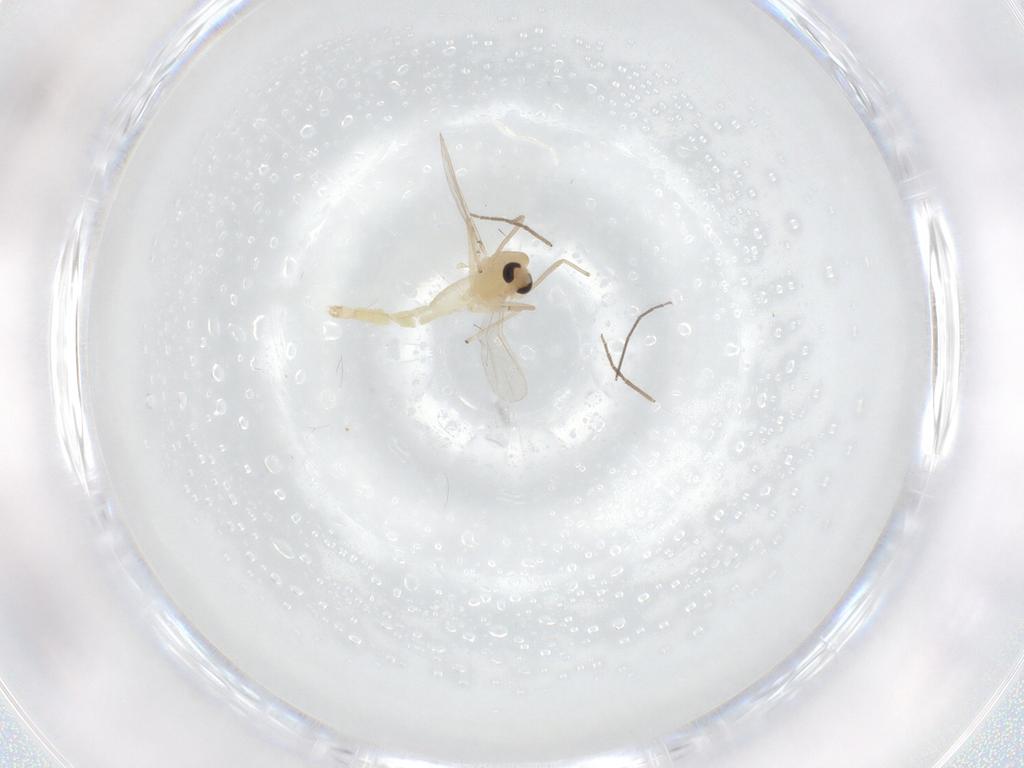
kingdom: Animalia
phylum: Arthropoda
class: Insecta
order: Diptera
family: Chironomidae
